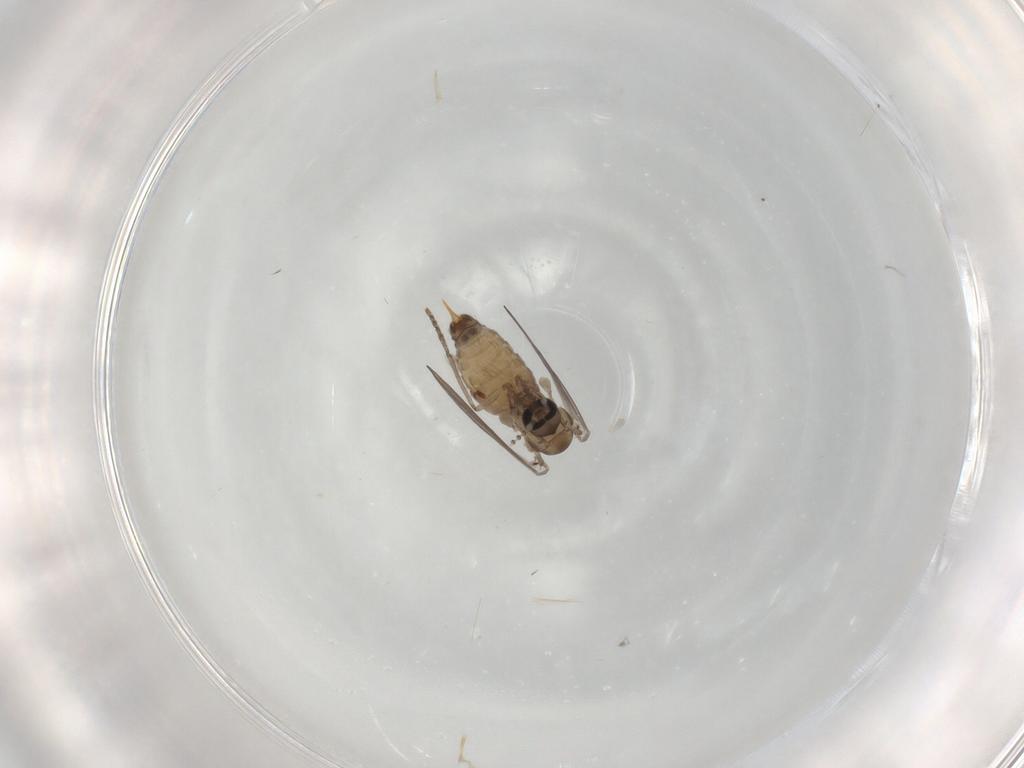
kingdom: Animalia
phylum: Arthropoda
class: Insecta
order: Diptera
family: Psychodidae
